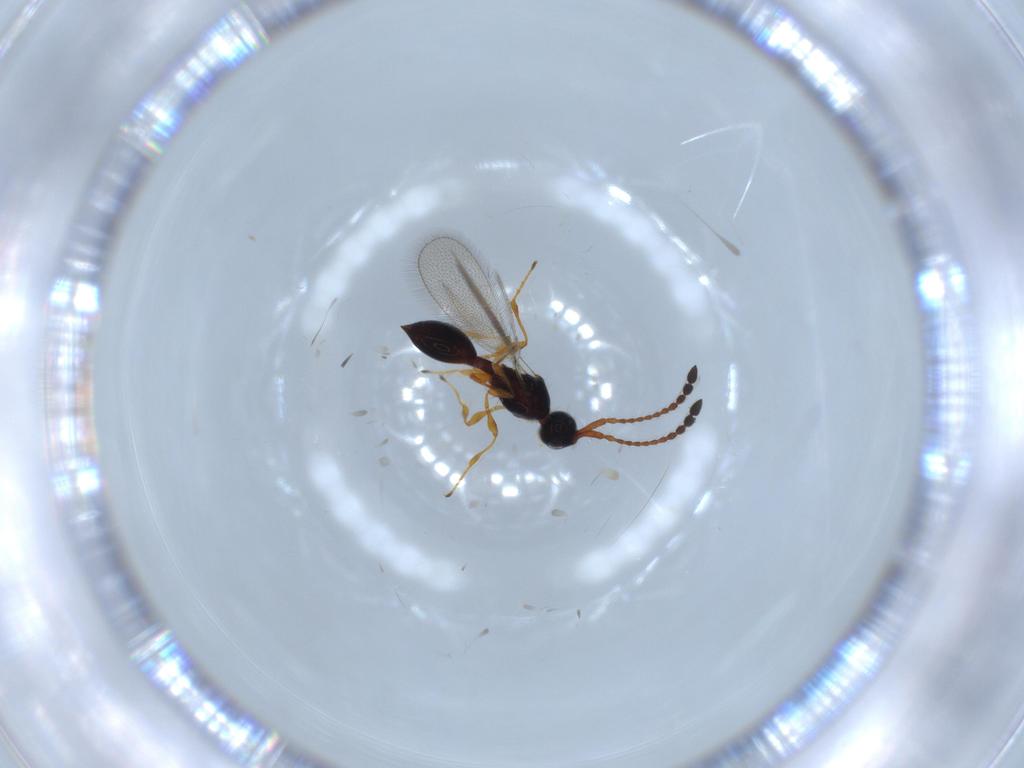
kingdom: Animalia
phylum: Arthropoda
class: Insecta
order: Hymenoptera
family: Diapriidae
